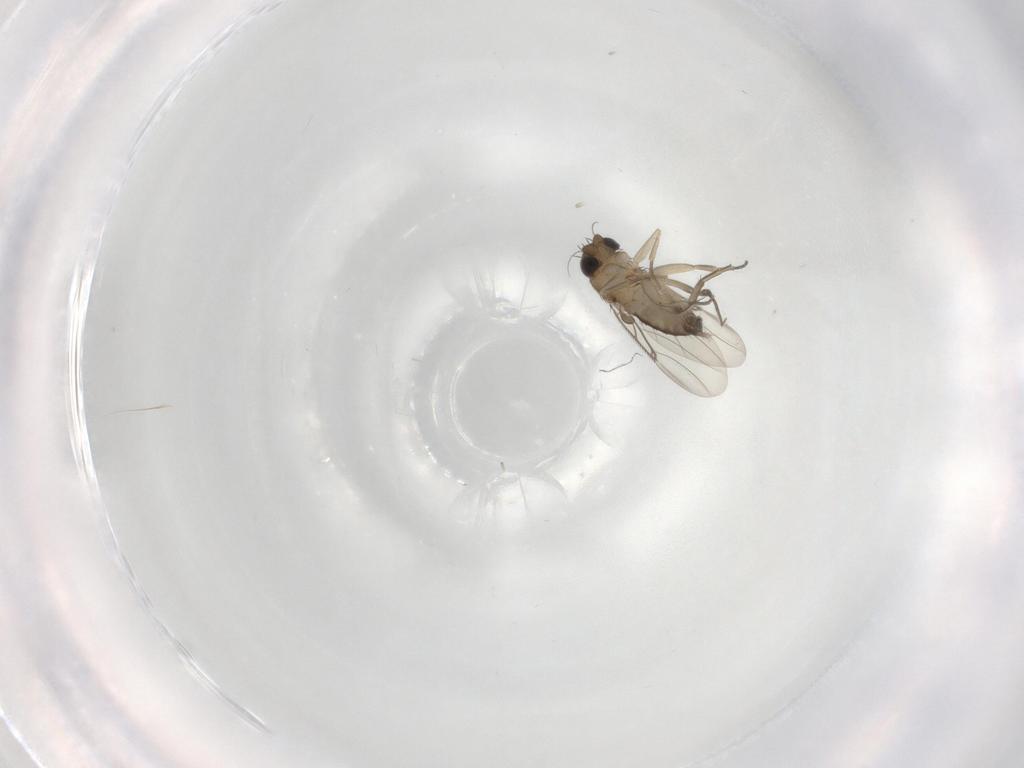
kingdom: Animalia
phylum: Arthropoda
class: Insecta
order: Diptera
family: Phoridae
